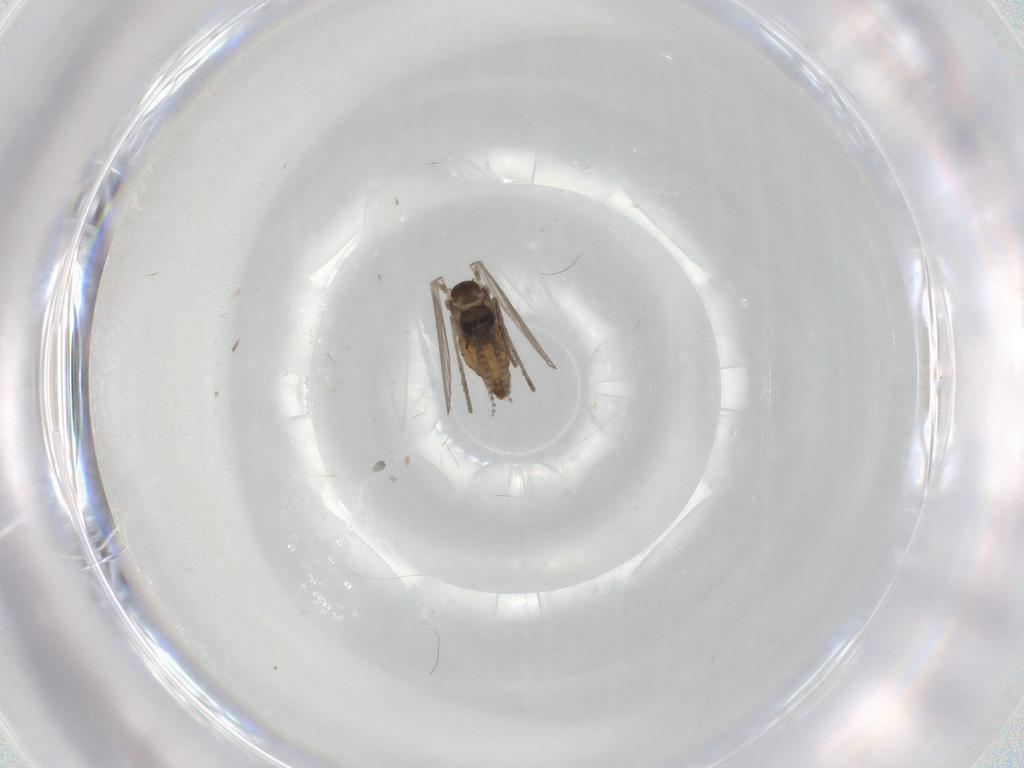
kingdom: Animalia
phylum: Arthropoda
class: Insecta
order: Diptera
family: Psychodidae
